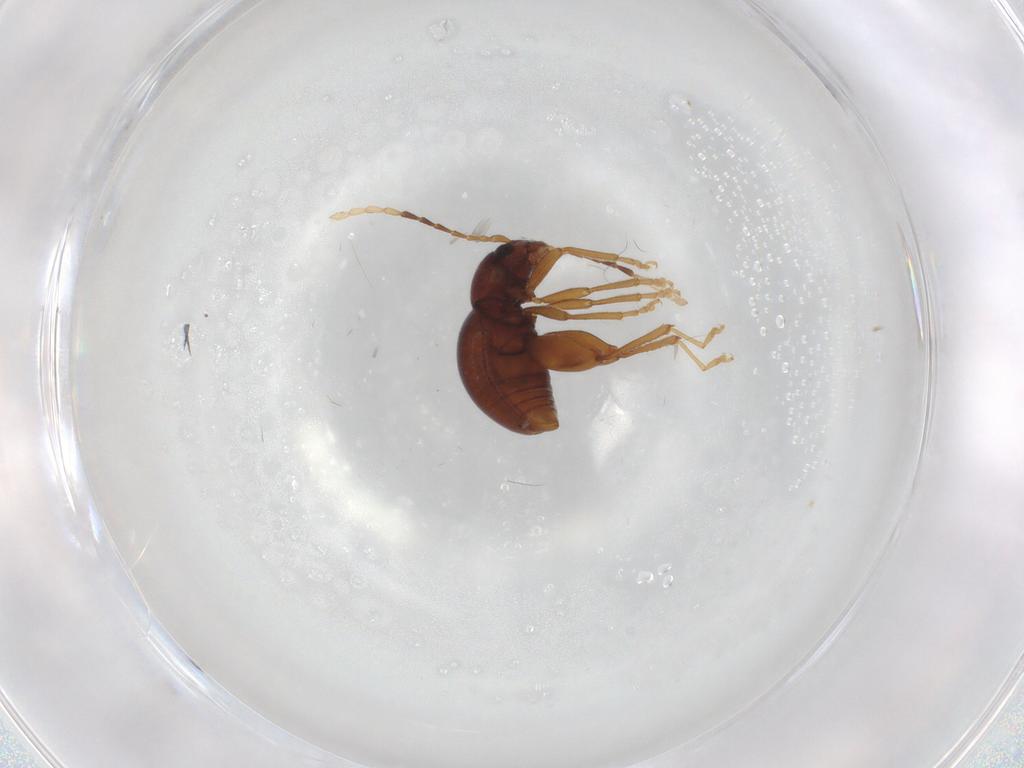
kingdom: Animalia
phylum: Arthropoda
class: Insecta
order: Coleoptera
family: Chrysomelidae
